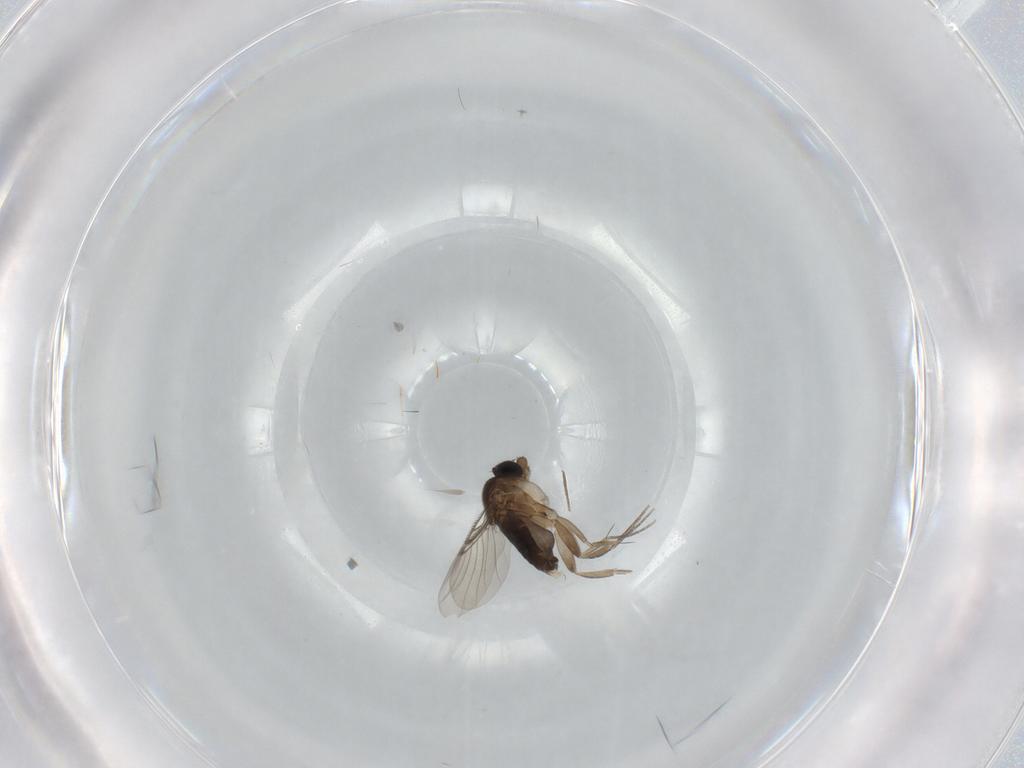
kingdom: Animalia
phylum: Arthropoda
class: Insecta
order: Diptera
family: Phoridae
